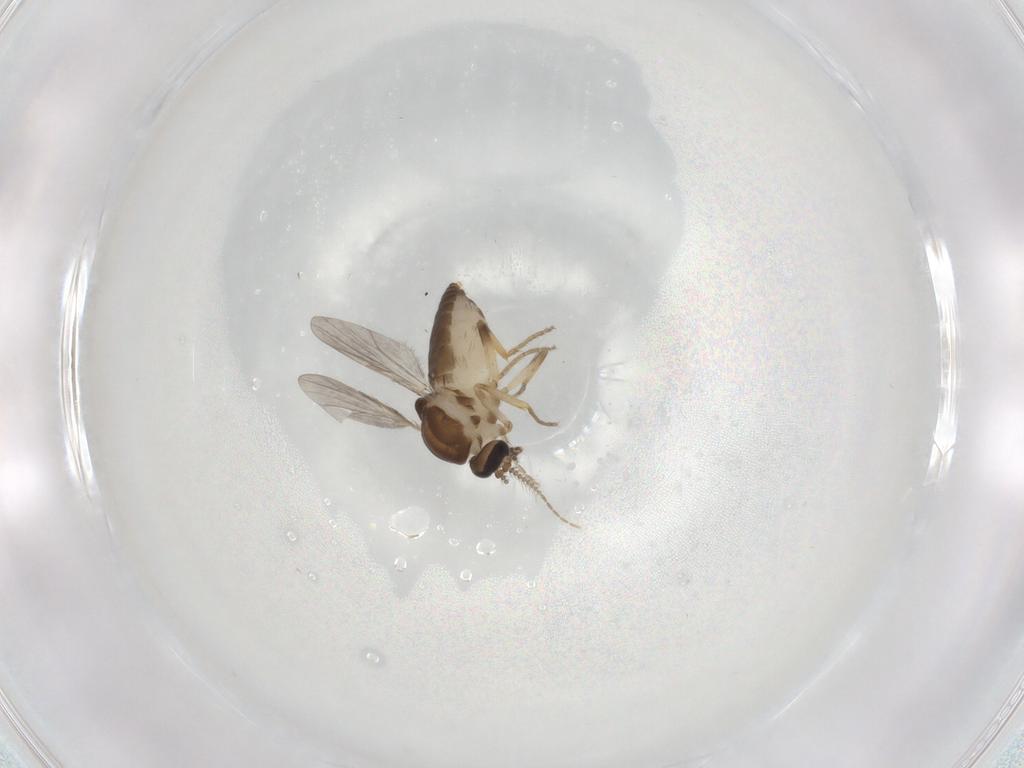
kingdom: Animalia
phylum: Arthropoda
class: Insecta
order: Diptera
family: Ceratopogonidae
